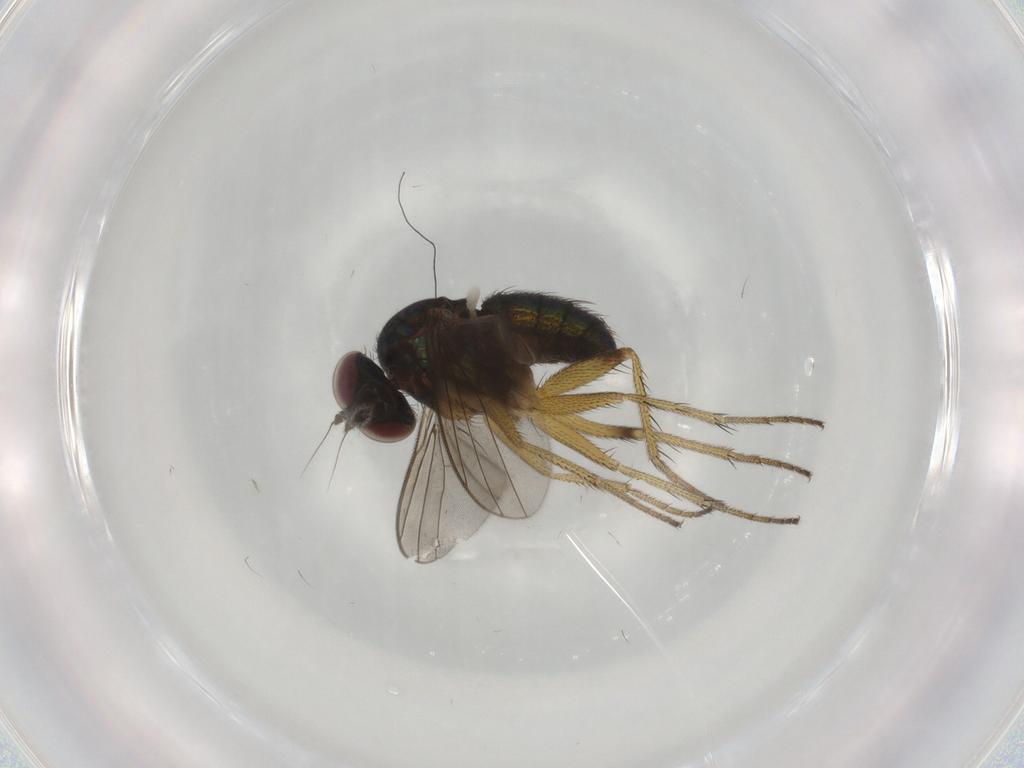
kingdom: Animalia
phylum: Arthropoda
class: Insecta
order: Diptera
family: Dolichopodidae
